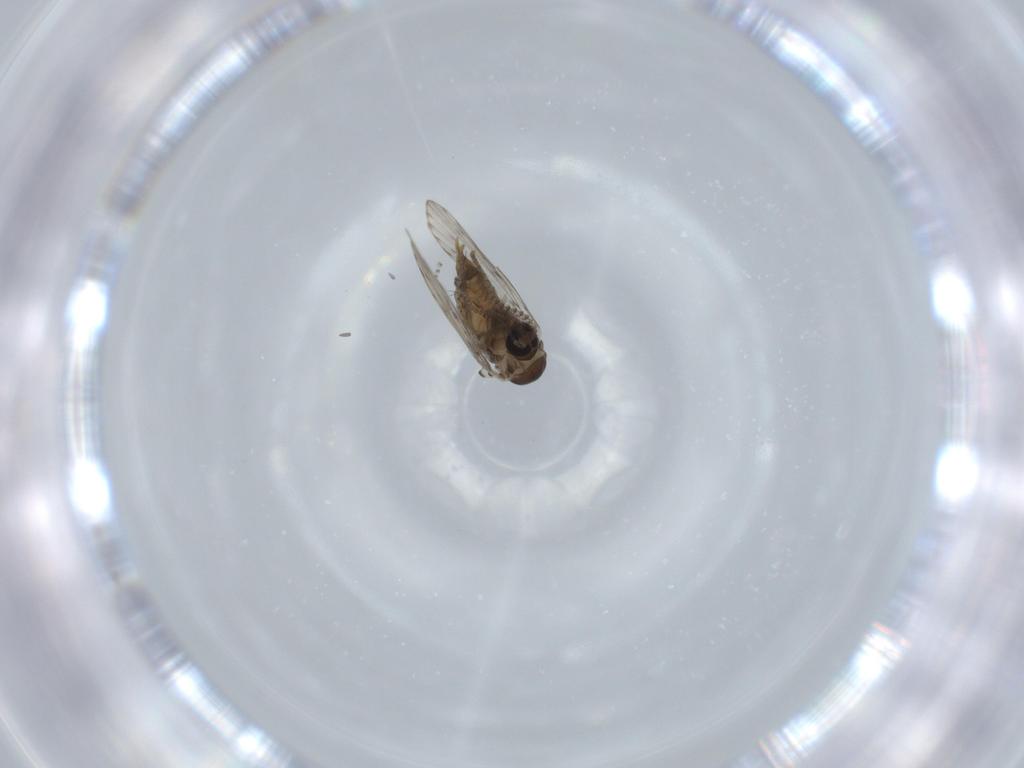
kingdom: Animalia
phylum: Arthropoda
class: Insecta
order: Diptera
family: Psychodidae
